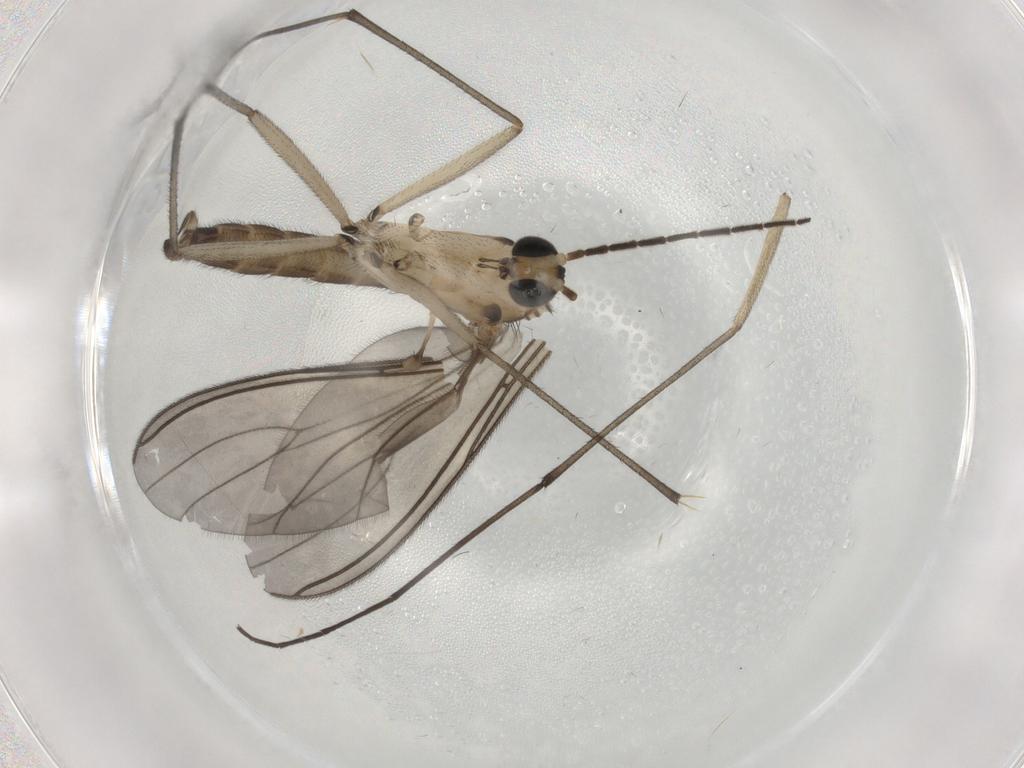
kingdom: Animalia
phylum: Arthropoda
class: Insecta
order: Diptera
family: Sciaridae
